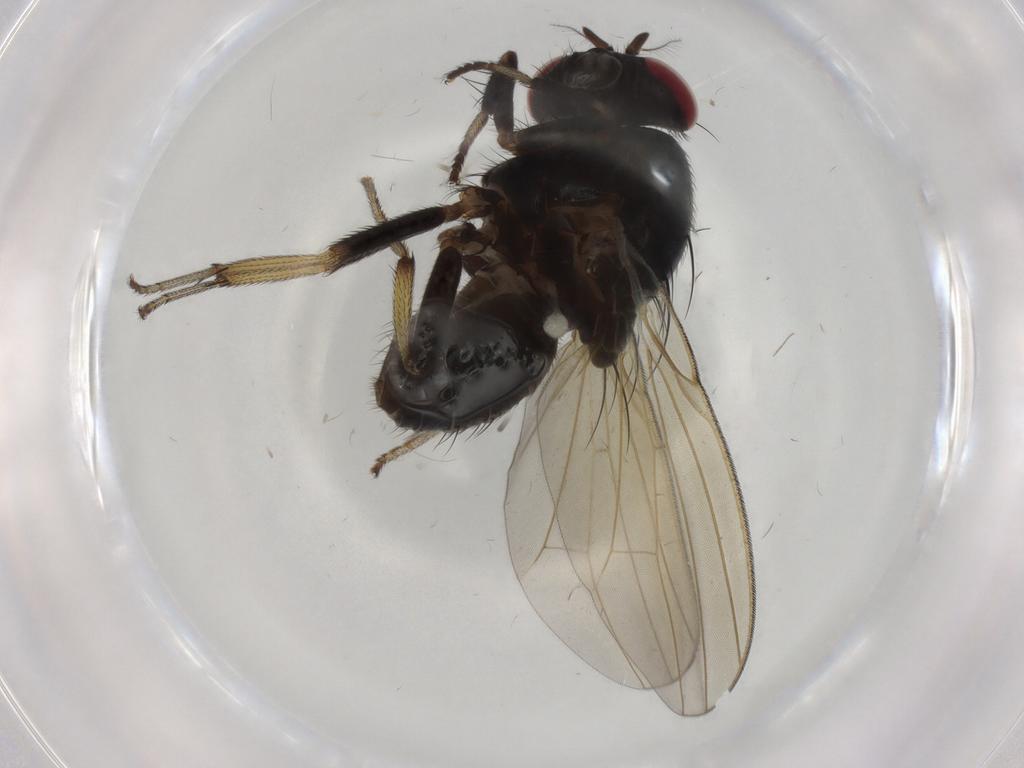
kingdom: Animalia
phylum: Arthropoda
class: Insecta
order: Diptera
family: Chironomidae
